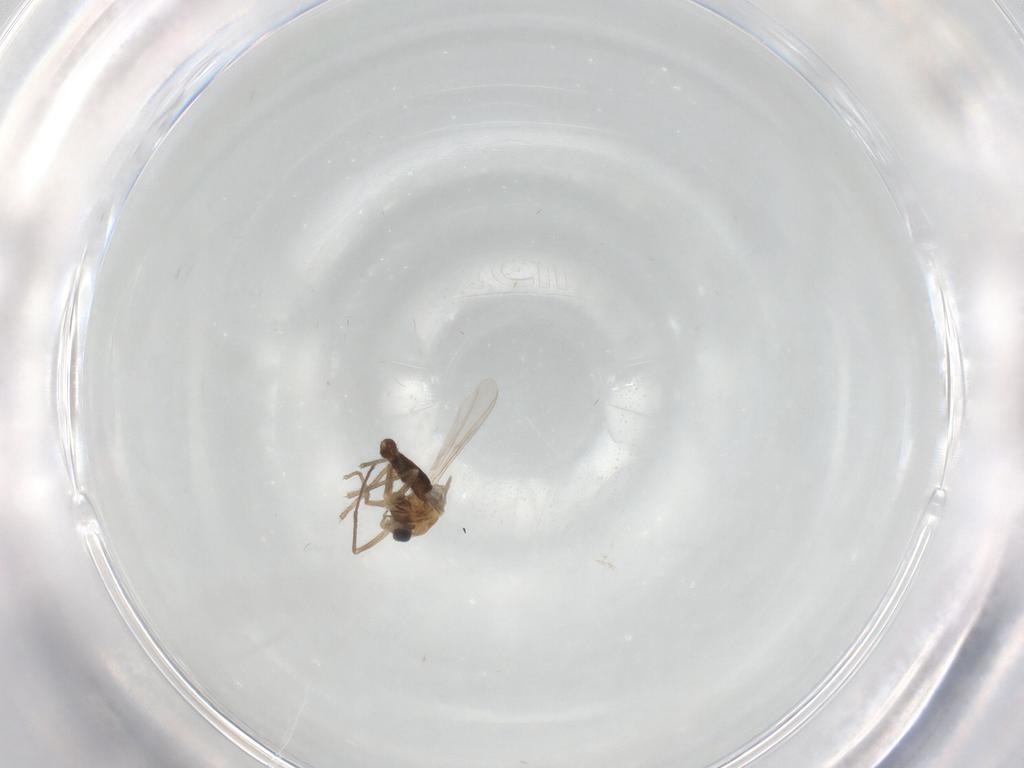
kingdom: Animalia
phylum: Arthropoda
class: Insecta
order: Diptera
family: Chironomidae
